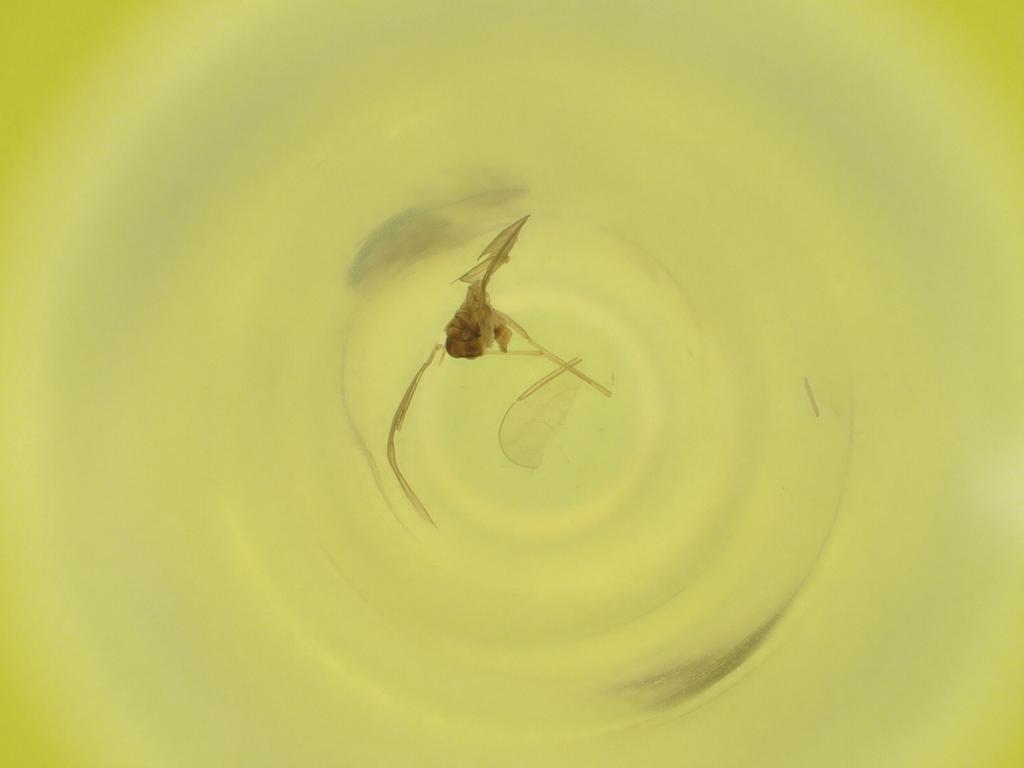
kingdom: Animalia
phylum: Arthropoda
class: Insecta
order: Diptera
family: Cecidomyiidae
